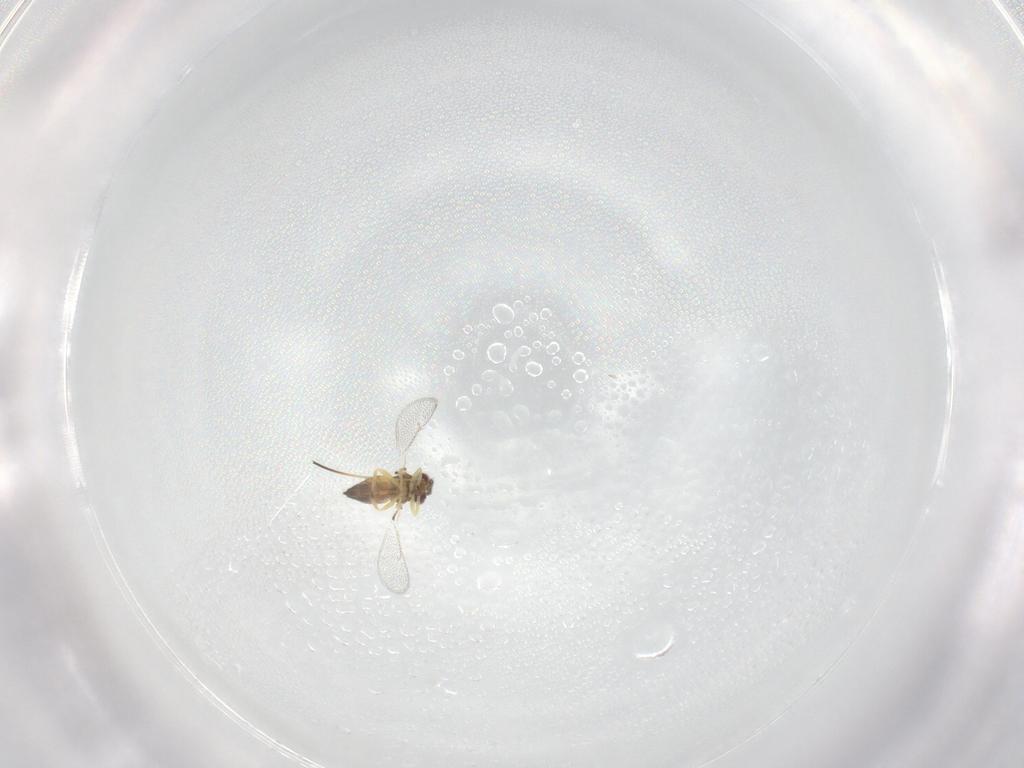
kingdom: Animalia
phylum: Arthropoda
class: Insecta
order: Hymenoptera
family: Eulophidae
